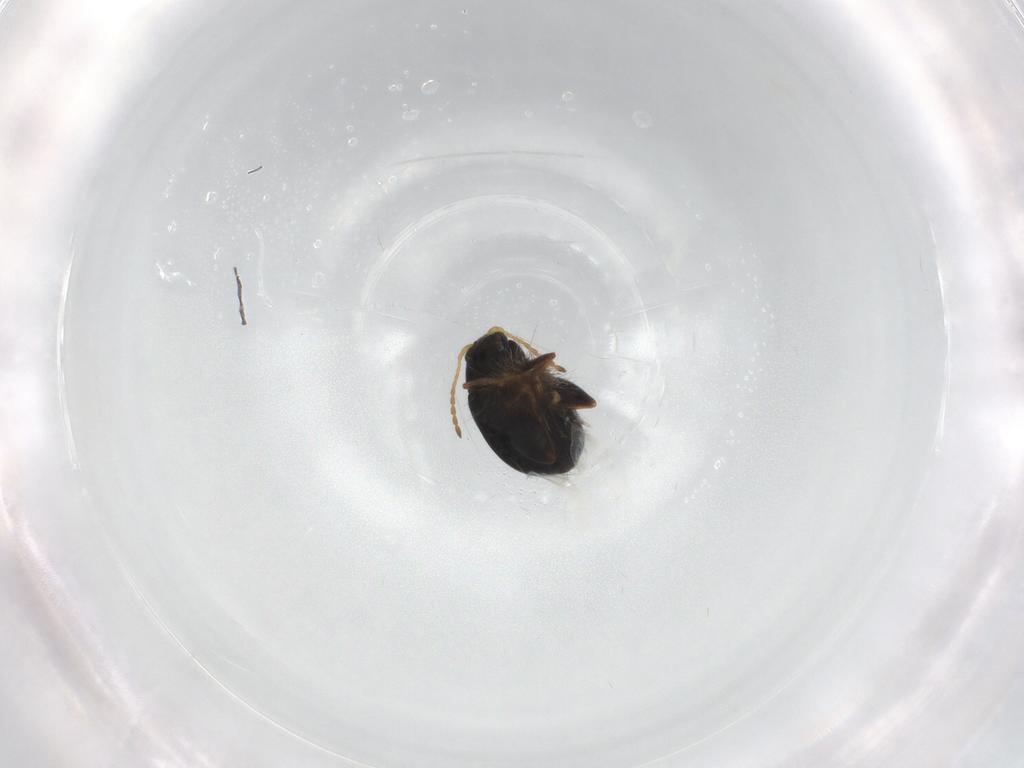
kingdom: Animalia
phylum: Arthropoda
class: Insecta
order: Coleoptera
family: Chrysomelidae
